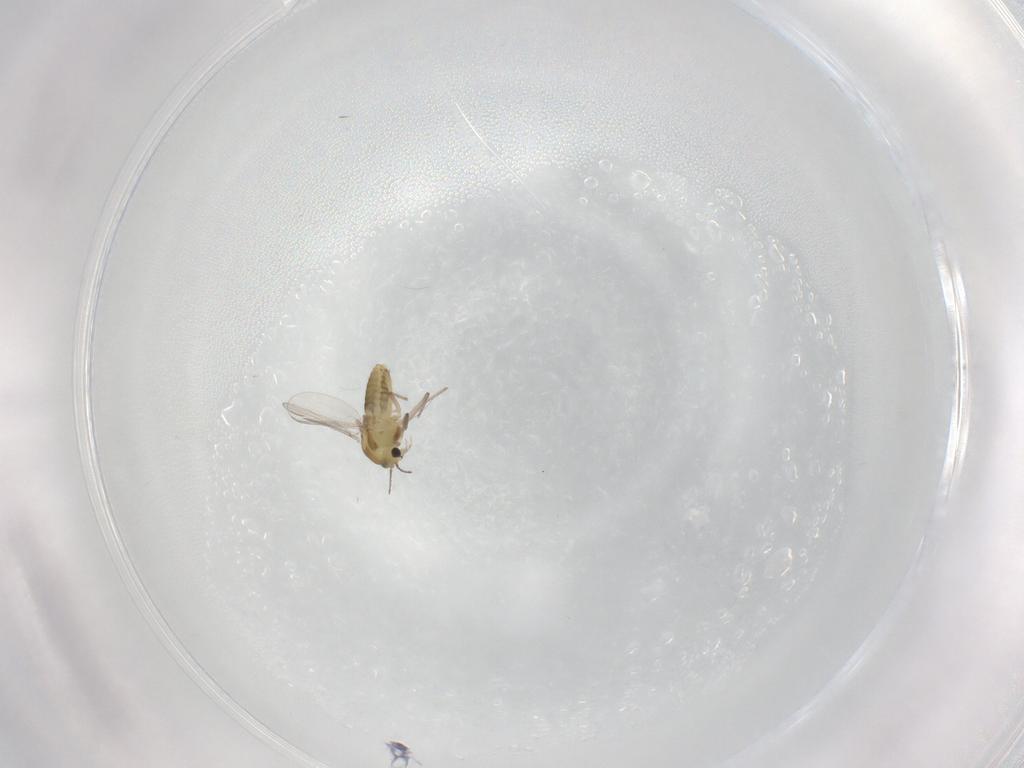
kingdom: Animalia
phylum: Arthropoda
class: Insecta
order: Diptera
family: Chironomidae
